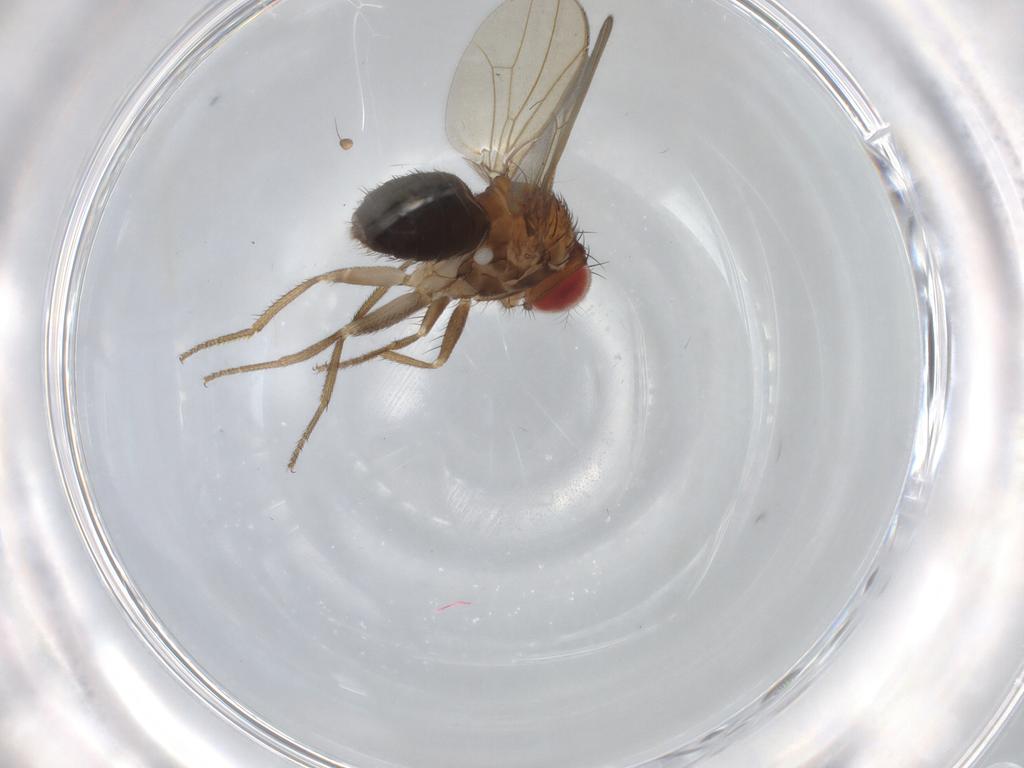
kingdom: Animalia
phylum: Arthropoda
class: Insecta
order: Diptera
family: Drosophilidae
